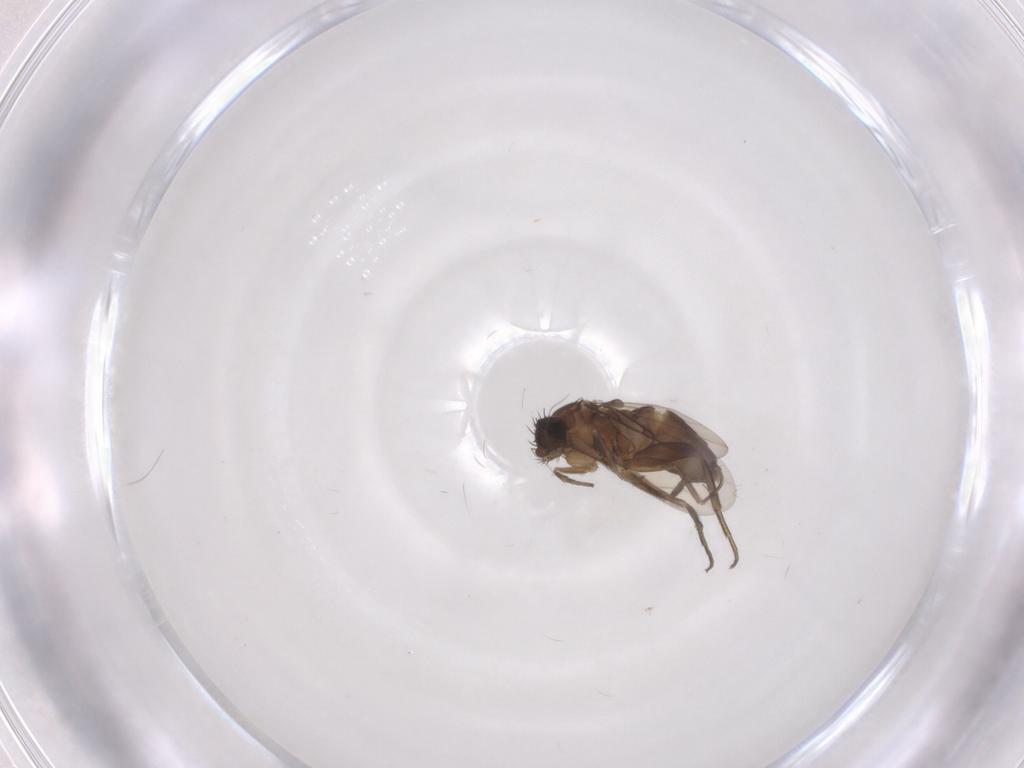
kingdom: Animalia
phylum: Arthropoda
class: Insecta
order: Diptera
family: Phoridae
